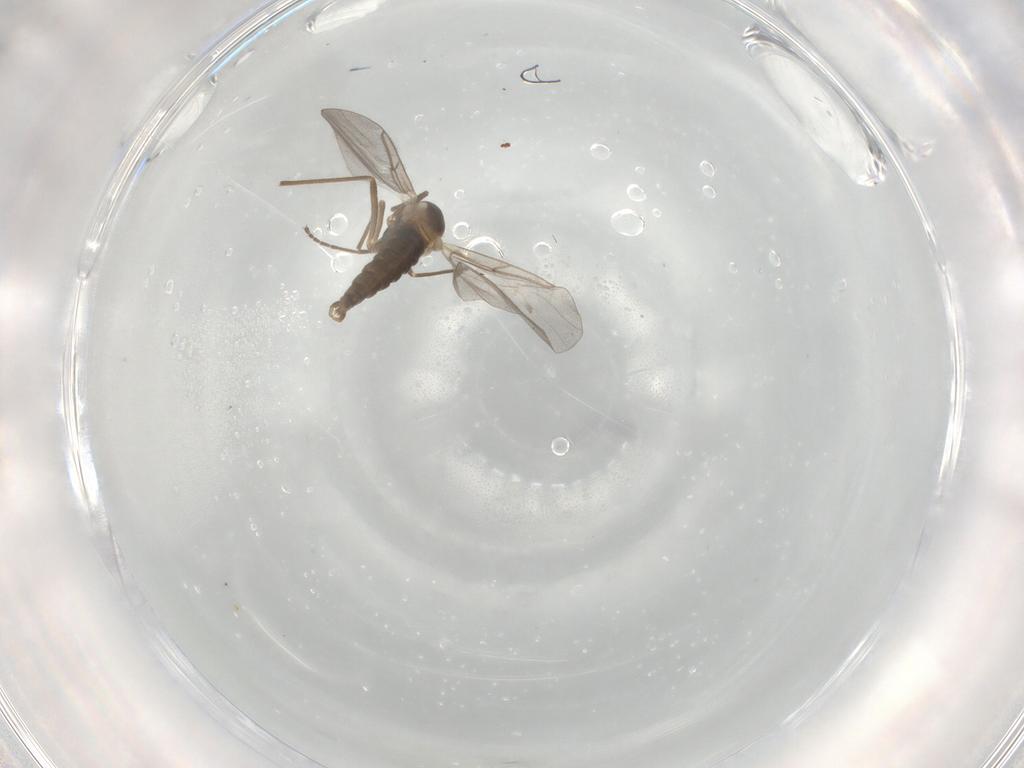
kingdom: Animalia
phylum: Arthropoda
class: Insecta
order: Diptera
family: Cecidomyiidae
